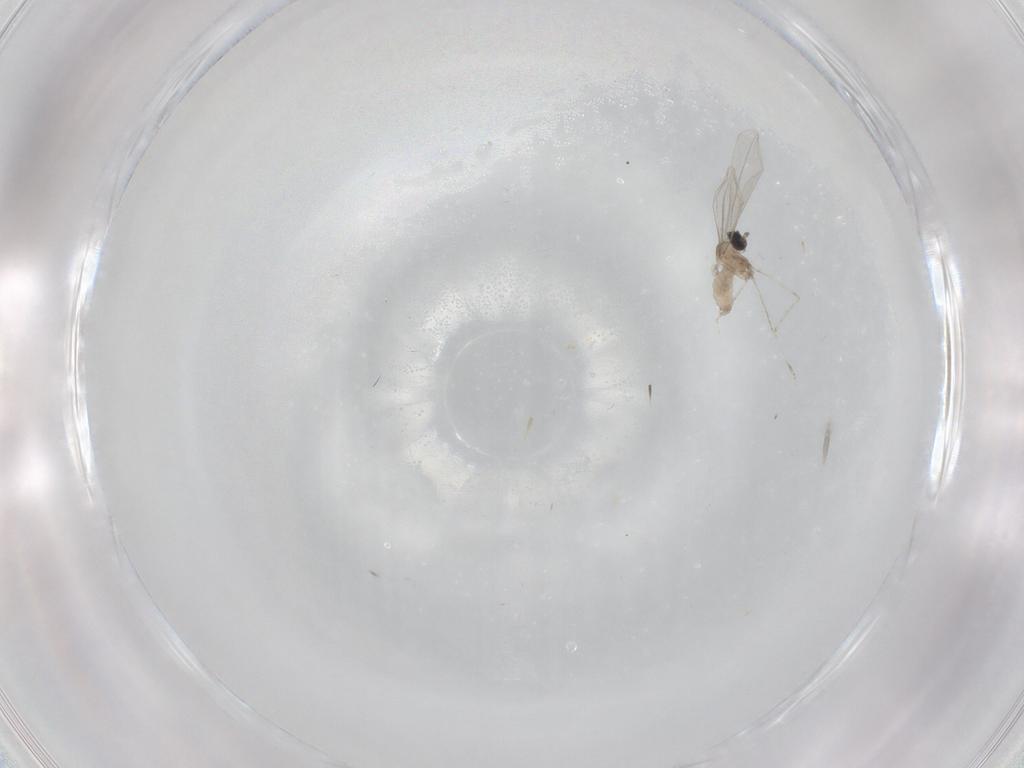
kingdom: Animalia
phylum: Arthropoda
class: Insecta
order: Diptera
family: Cecidomyiidae
